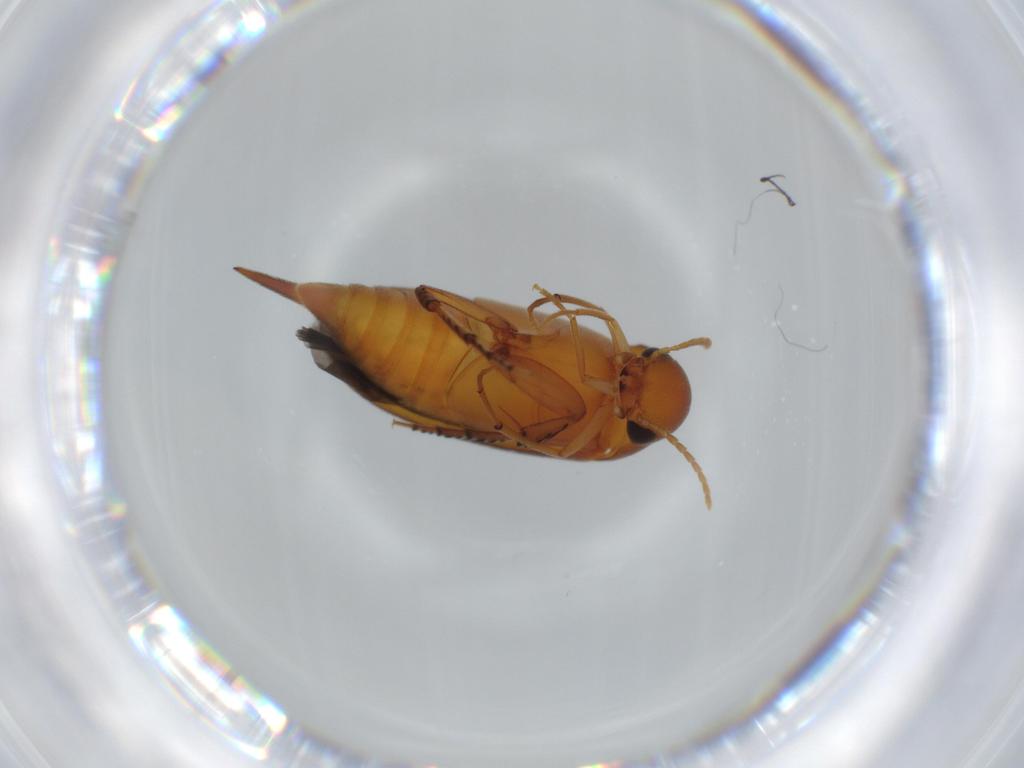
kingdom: Animalia
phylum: Arthropoda
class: Insecta
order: Coleoptera
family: Mordellidae
